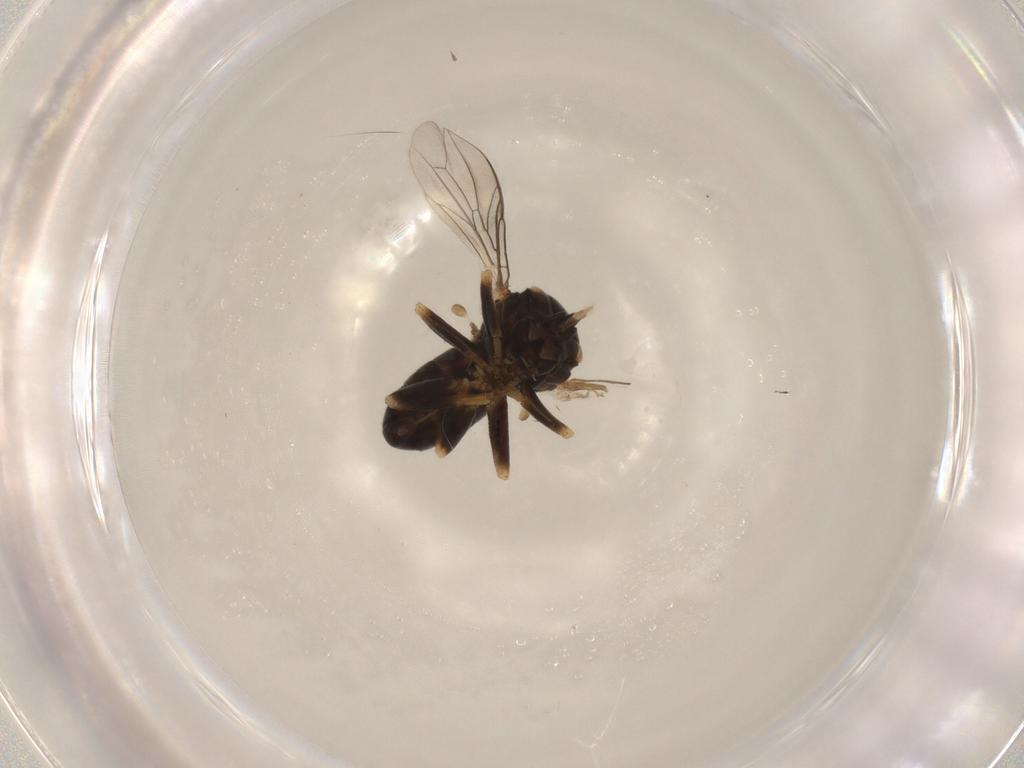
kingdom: Animalia
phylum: Arthropoda
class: Insecta
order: Diptera
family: Pipunculidae
